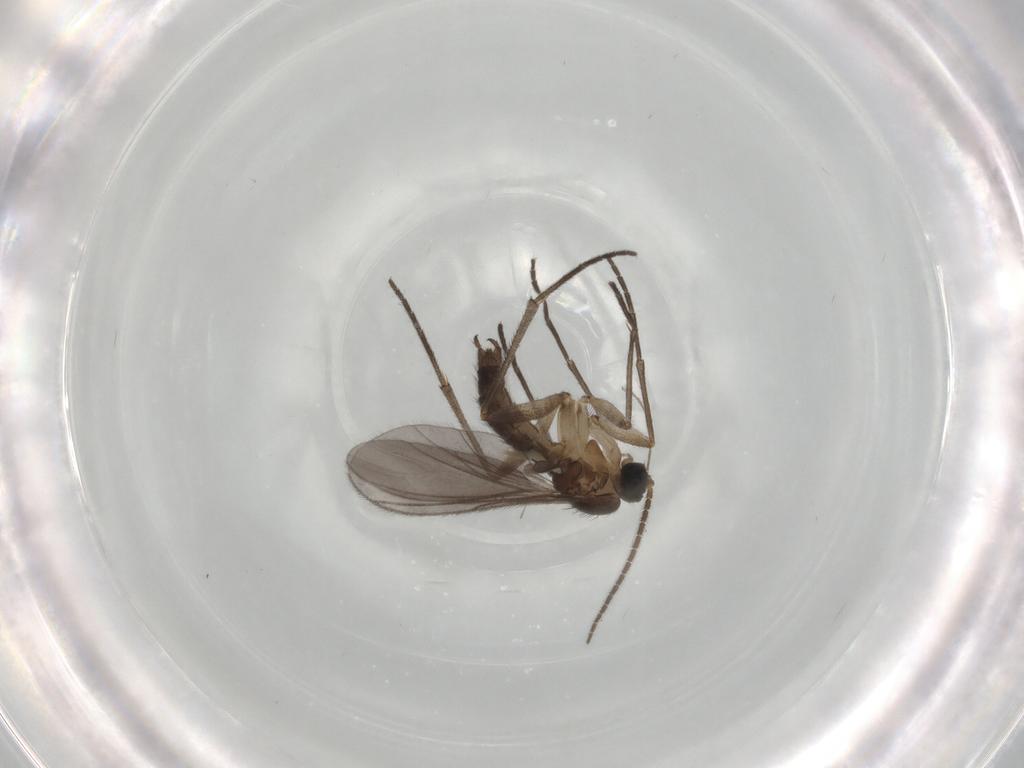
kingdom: Animalia
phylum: Arthropoda
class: Insecta
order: Diptera
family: Sciaridae
